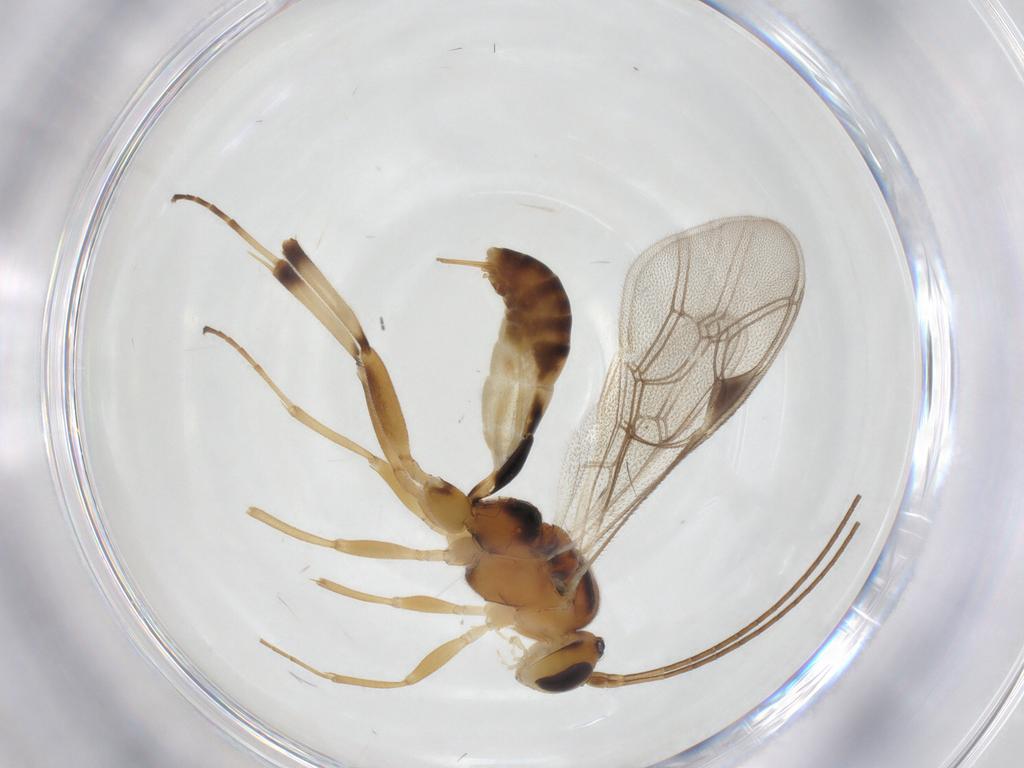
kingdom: Animalia
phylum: Arthropoda
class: Insecta
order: Hymenoptera
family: Ichneumonidae
